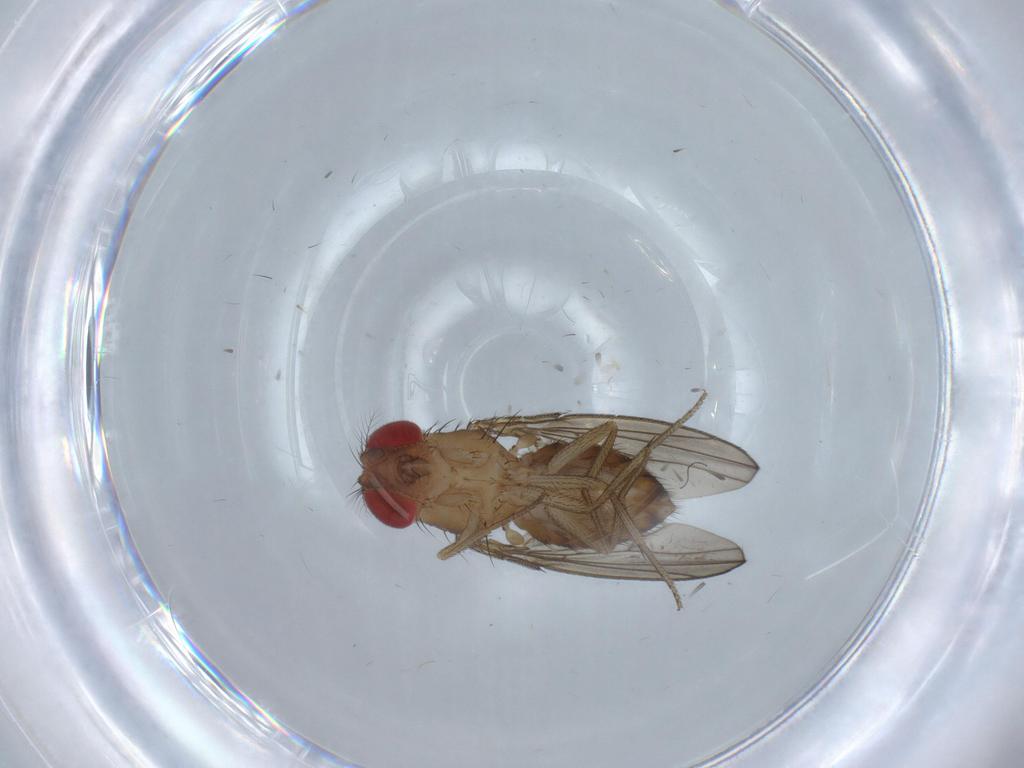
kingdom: Animalia
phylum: Arthropoda
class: Insecta
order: Diptera
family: Drosophilidae
